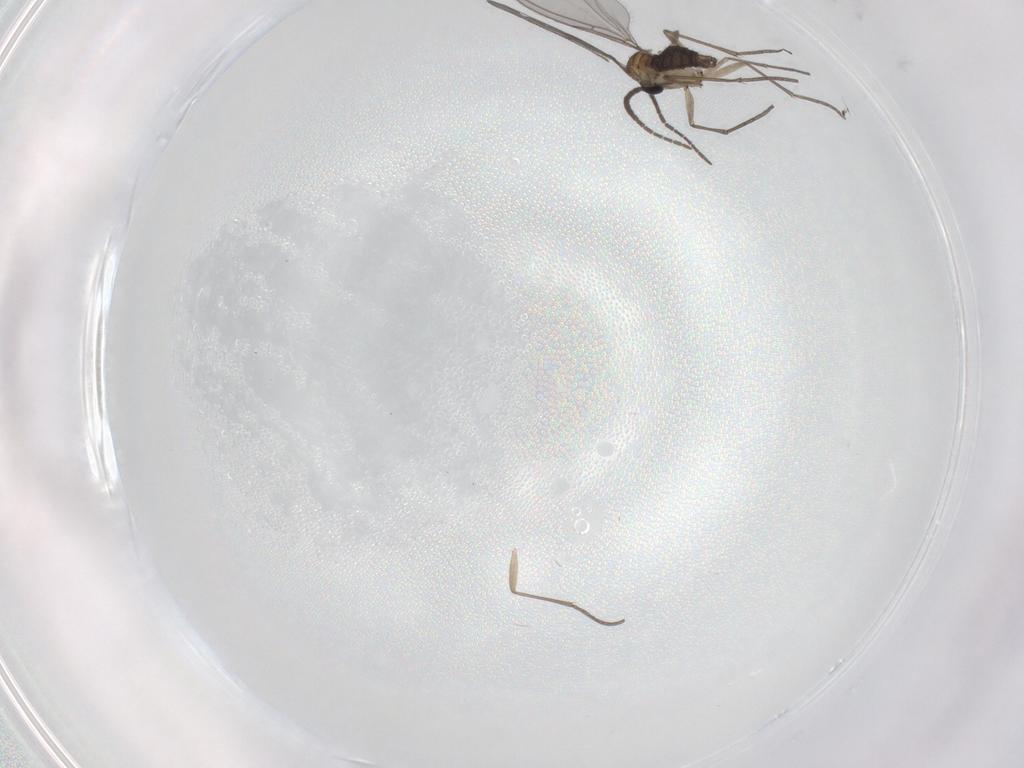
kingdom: Animalia
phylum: Arthropoda
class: Insecta
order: Diptera
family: Sciaridae
